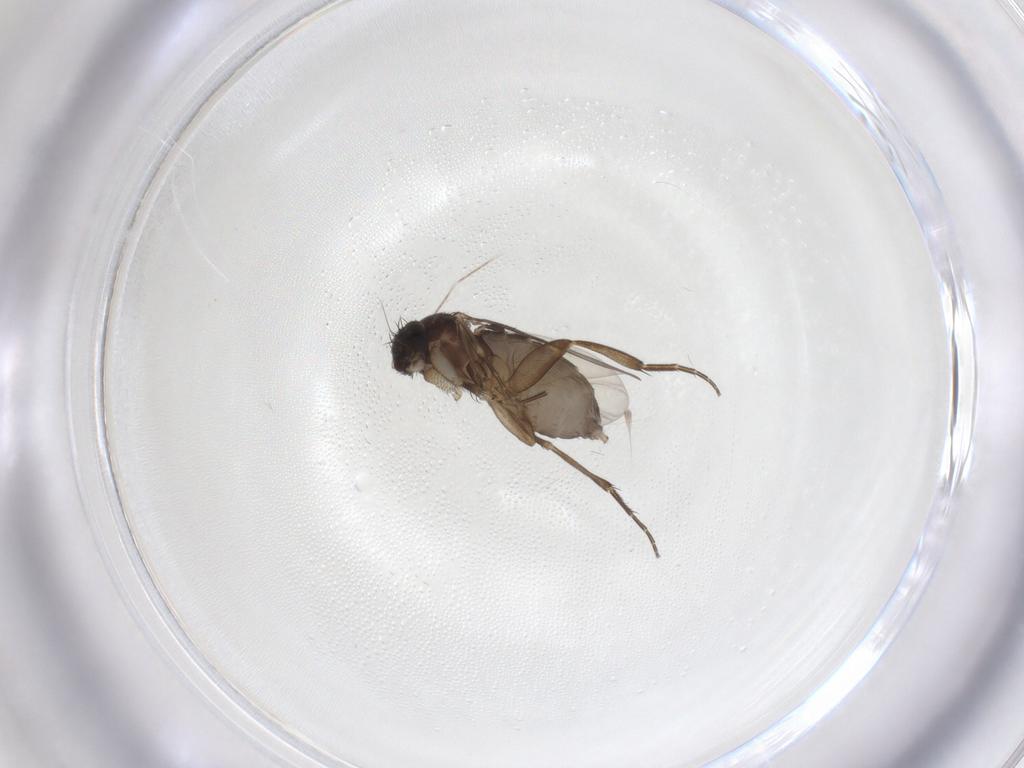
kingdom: Animalia
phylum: Arthropoda
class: Insecta
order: Diptera
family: Phoridae
